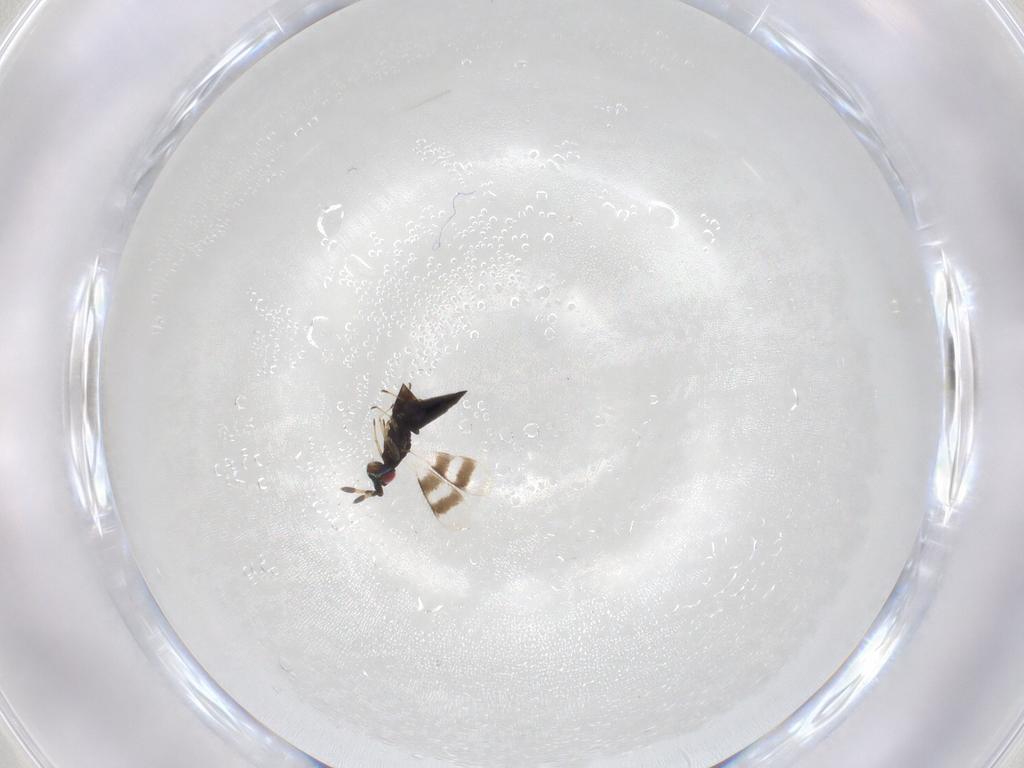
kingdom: Animalia
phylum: Arthropoda
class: Insecta
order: Hymenoptera
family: Eulophidae
